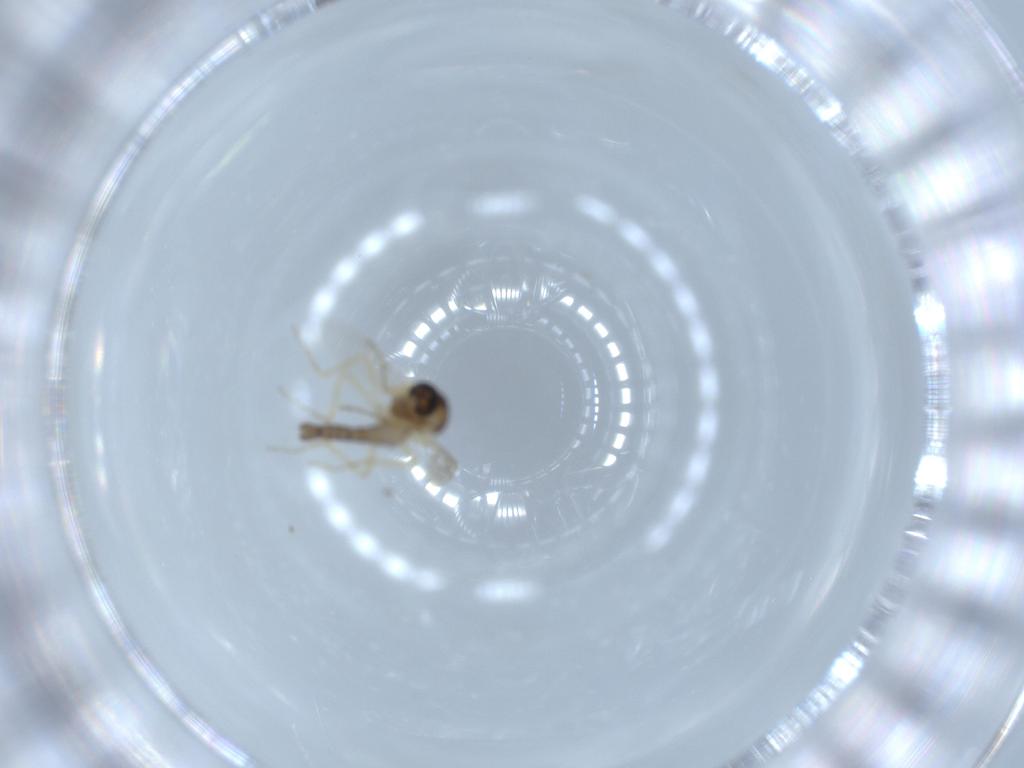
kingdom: Animalia
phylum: Arthropoda
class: Insecta
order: Diptera
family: Ceratopogonidae
